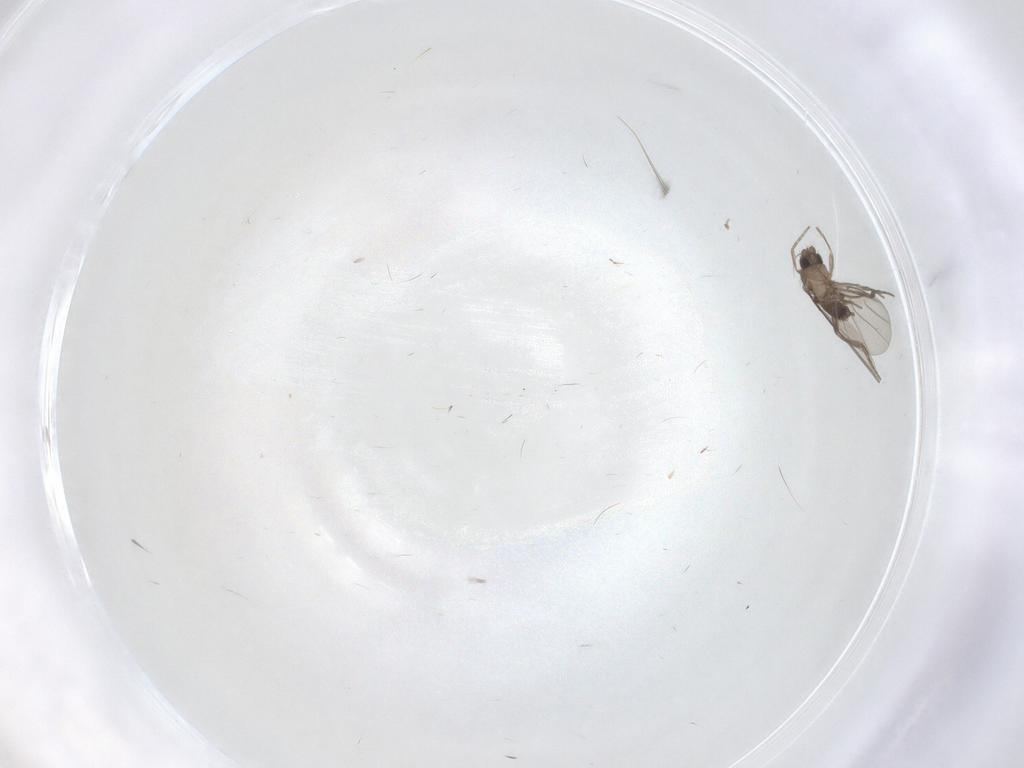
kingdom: Animalia
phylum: Arthropoda
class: Insecta
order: Diptera
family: Phoridae
